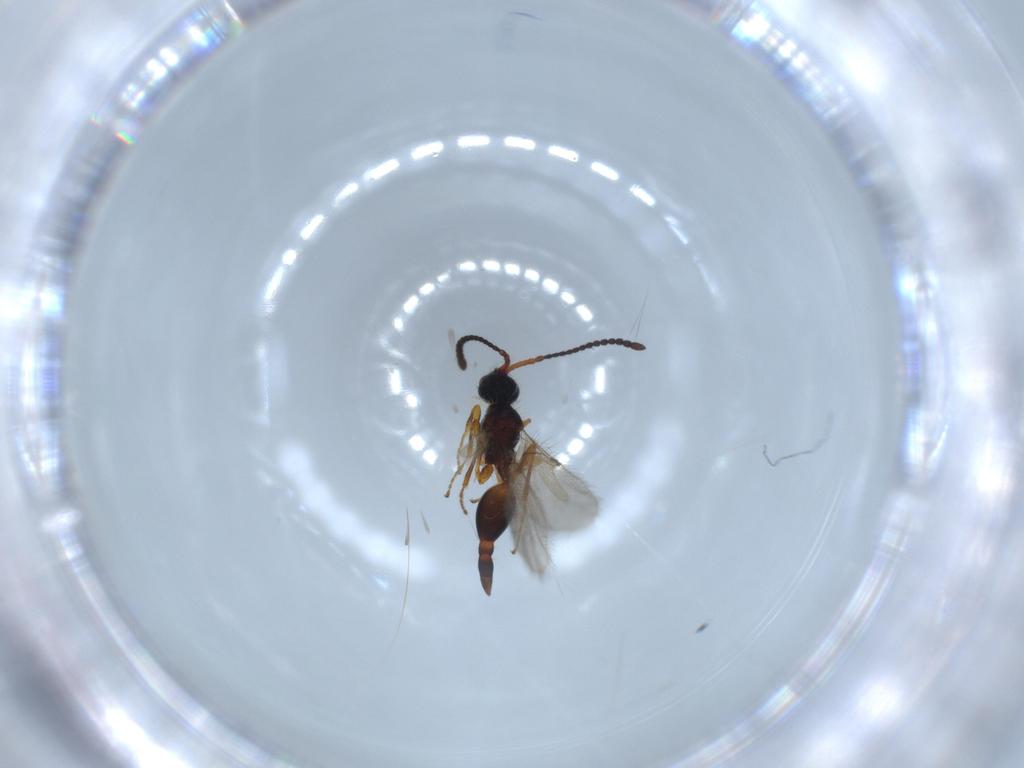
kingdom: Animalia
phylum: Arthropoda
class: Insecta
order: Hymenoptera
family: Diapriidae
